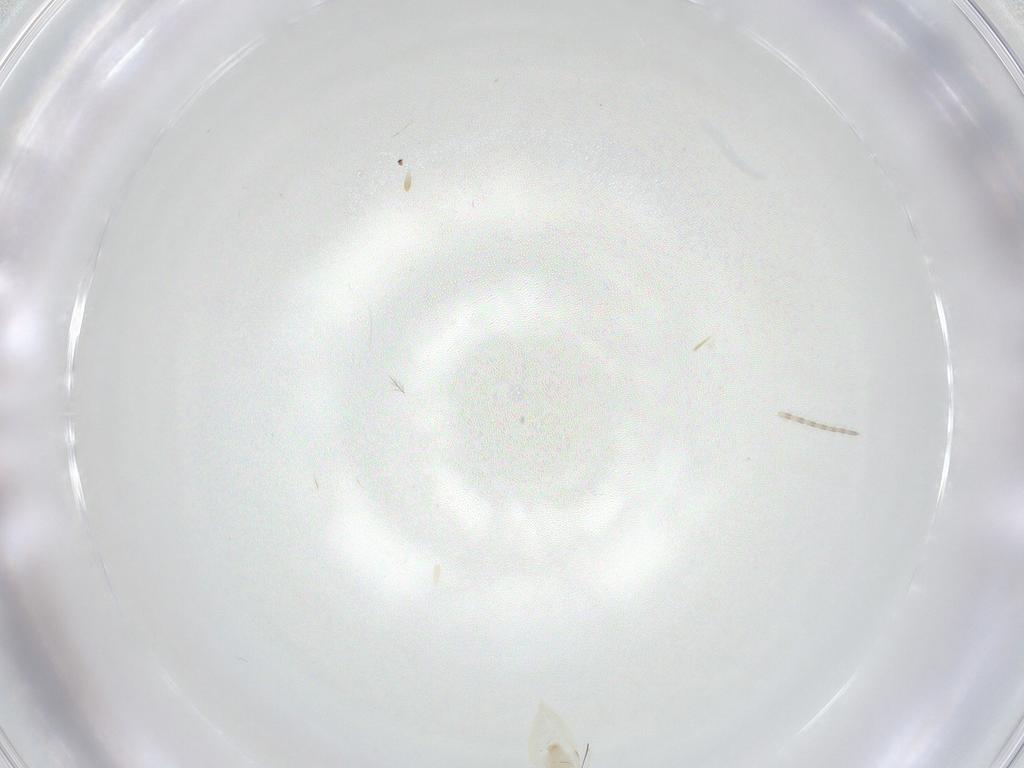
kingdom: Animalia
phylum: Arthropoda
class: Insecta
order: Diptera
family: Cecidomyiidae
